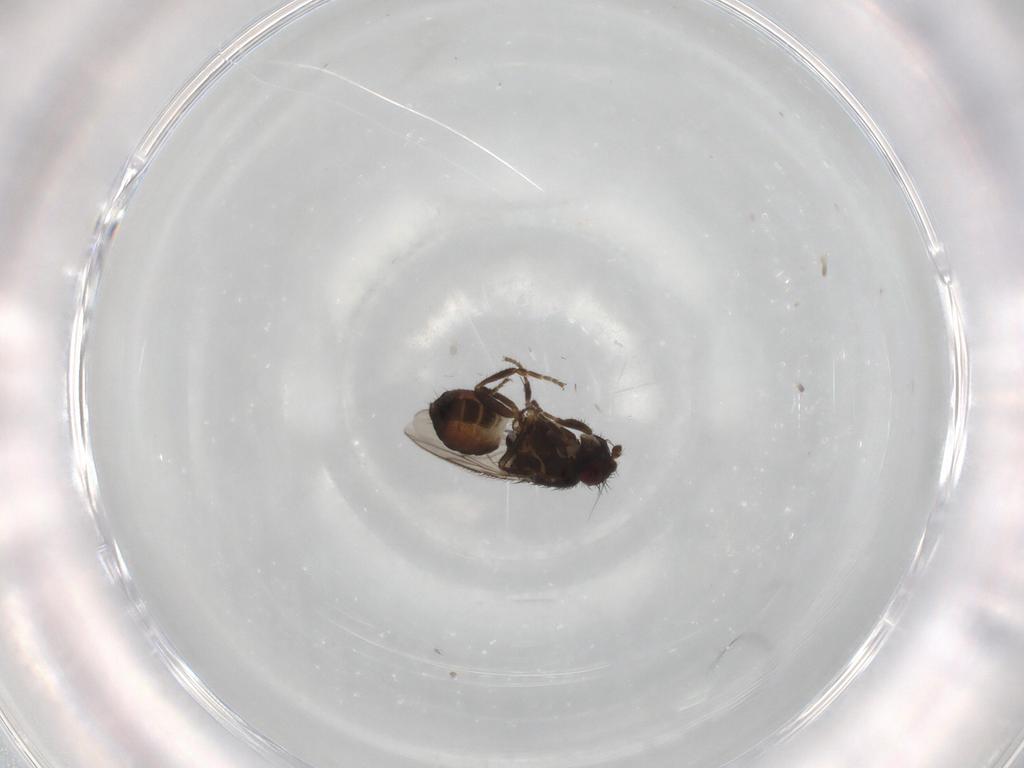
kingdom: Animalia
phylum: Arthropoda
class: Insecta
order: Diptera
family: Sphaeroceridae
